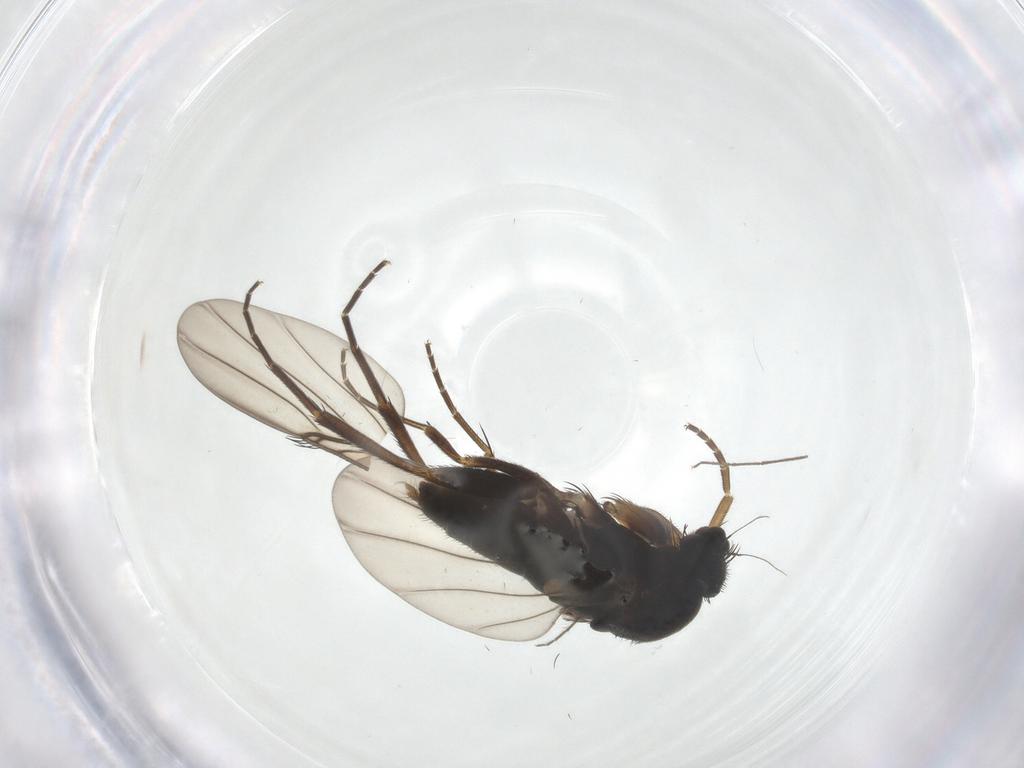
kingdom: Animalia
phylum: Arthropoda
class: Insecta
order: Diptera
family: Phoridae
